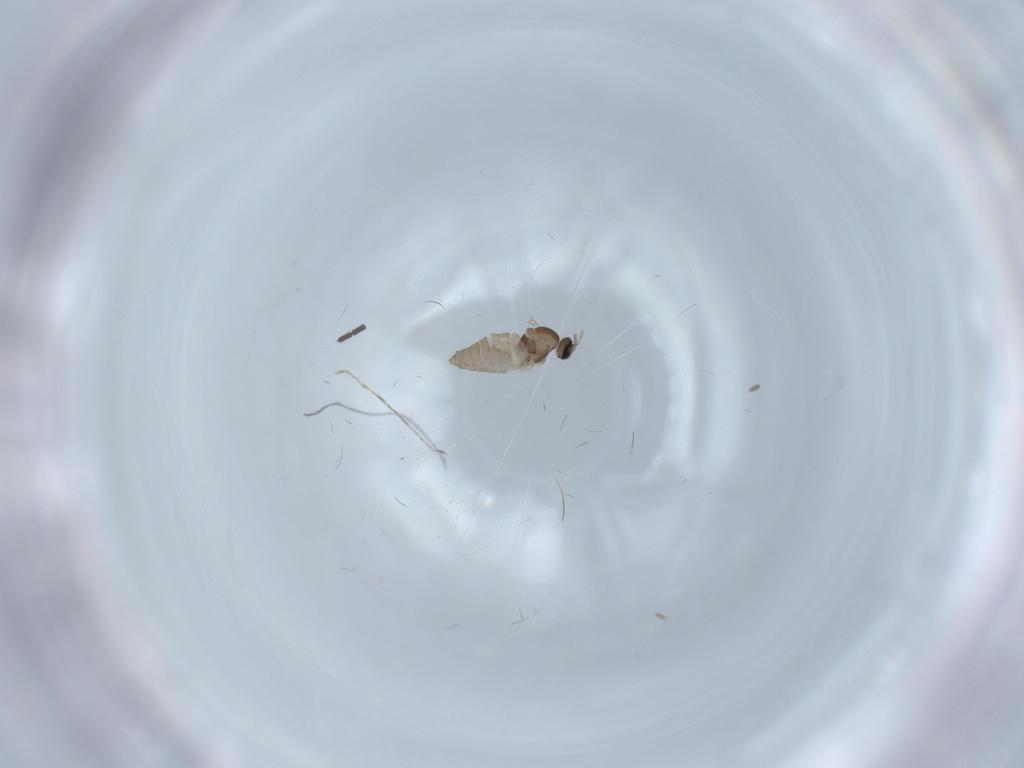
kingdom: Animalia
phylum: Arthropoda
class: Insecta
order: Diptera
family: Cecidomyiidae
